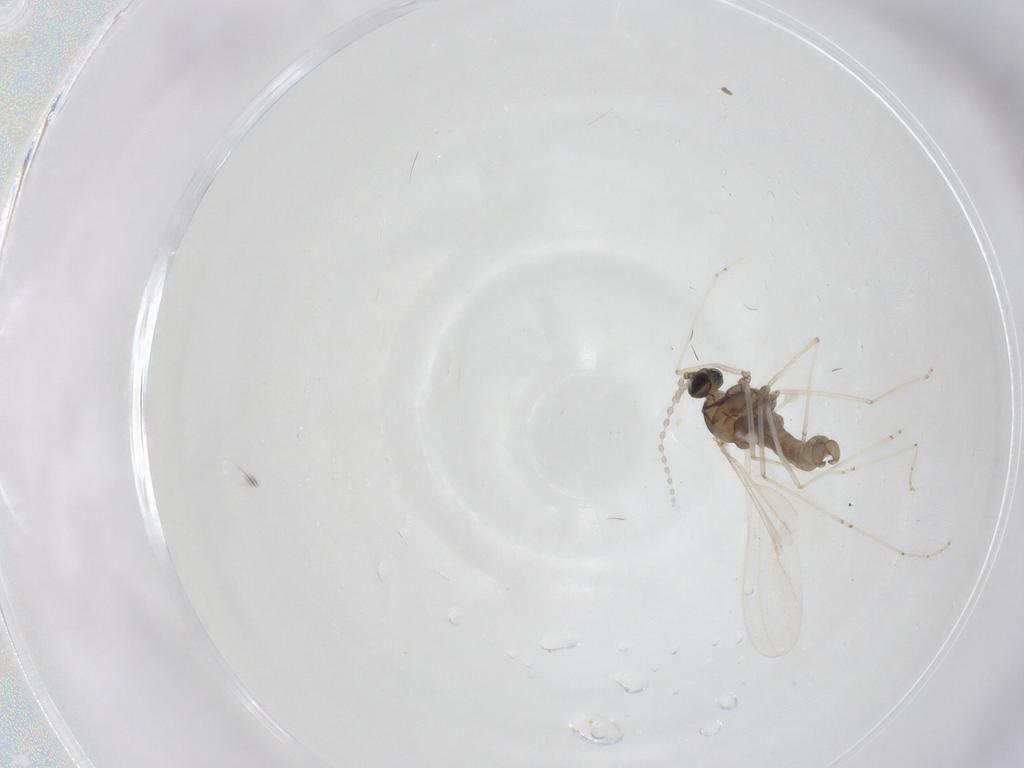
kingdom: Animalia
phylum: Arthropoda
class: Insecta
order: Diptera
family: Cecidomyiidae
